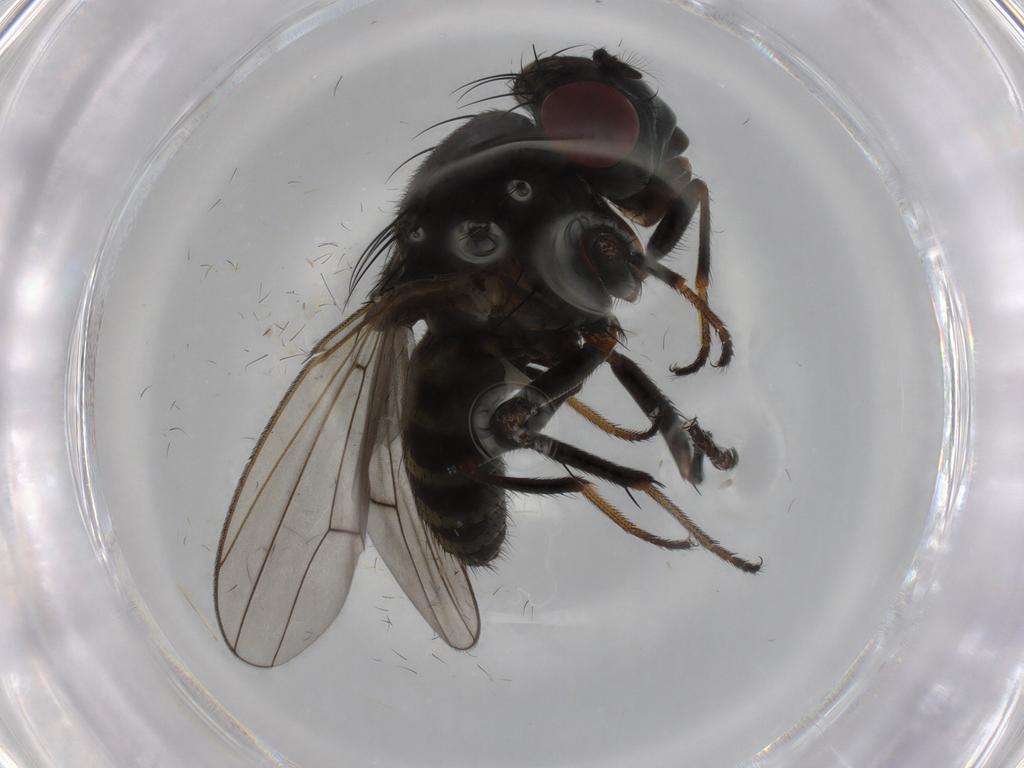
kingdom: Animalia
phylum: Arthropoda
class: Insecta
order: Diptera
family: Ephydridae
